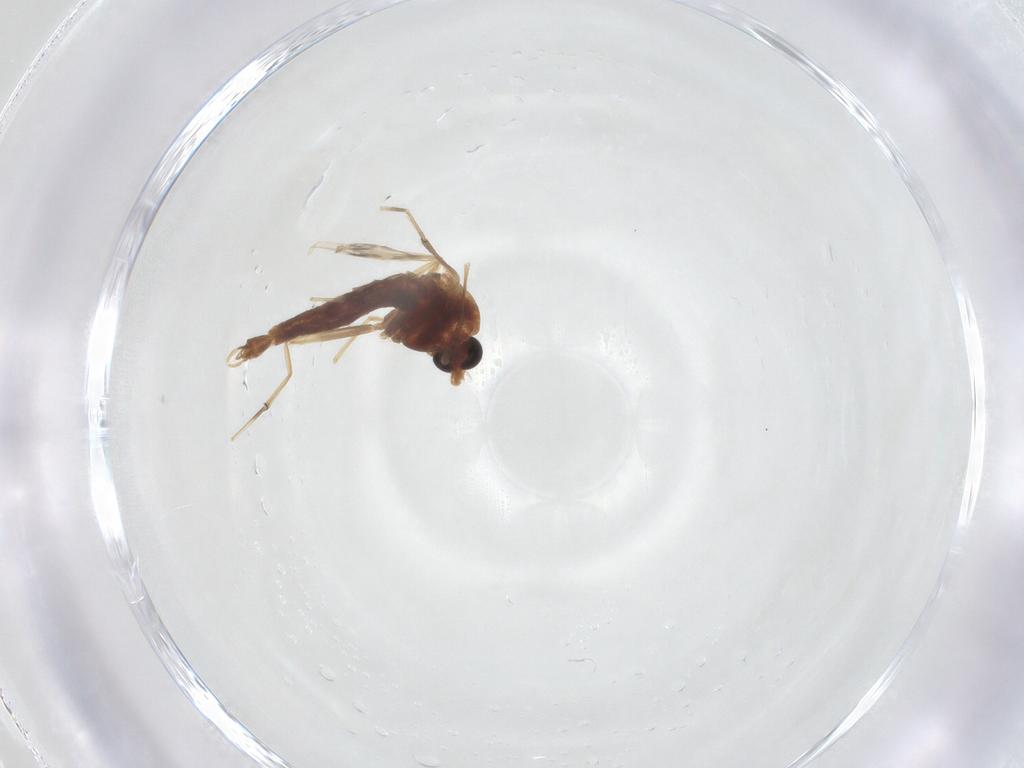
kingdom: Animalia
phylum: Arthropoda
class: Insecta
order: Diptera
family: Chironomidae
